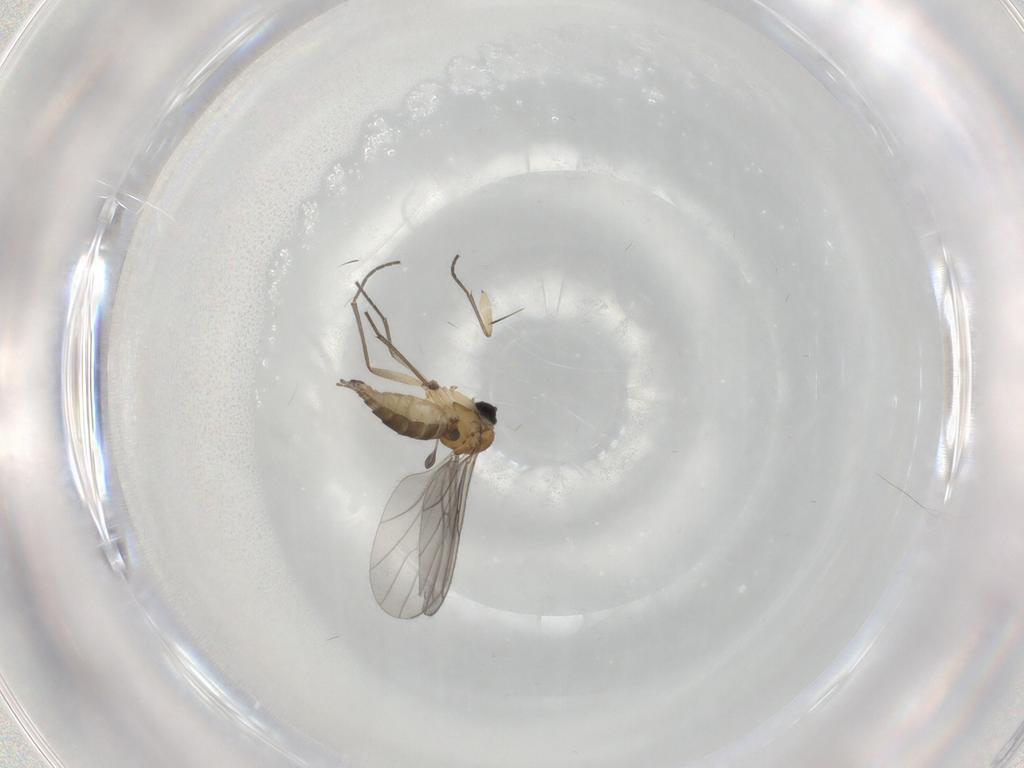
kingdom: Animalia
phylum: Arthropoda
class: Insecta
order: Diptera
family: Sciaridae
